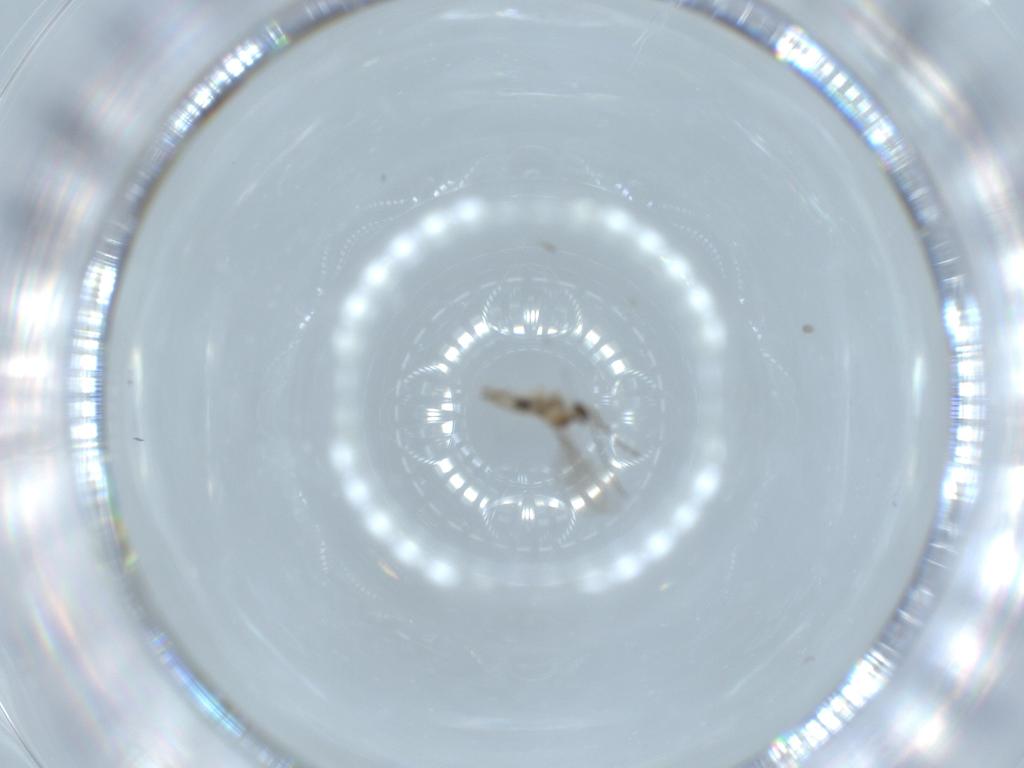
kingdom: Animalia
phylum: Arthropoda
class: Insecta
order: Diptera
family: Cecidomyiidae
